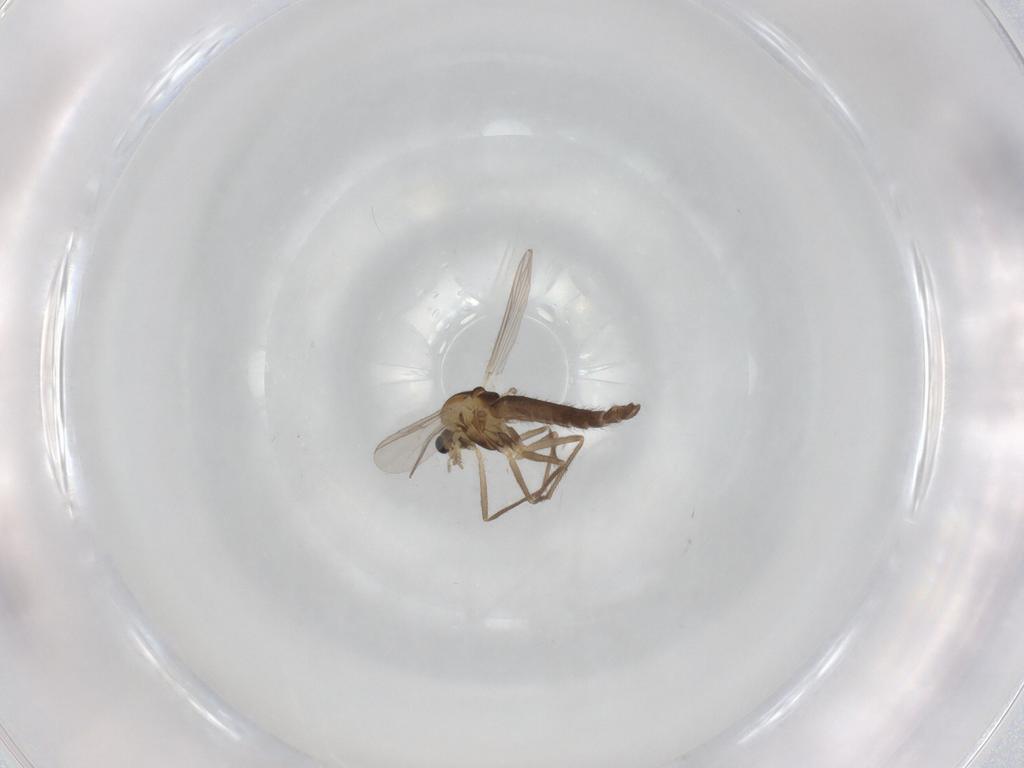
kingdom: Animalia
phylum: Arthropoda
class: Insecta
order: Diptera
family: Chironomidae
